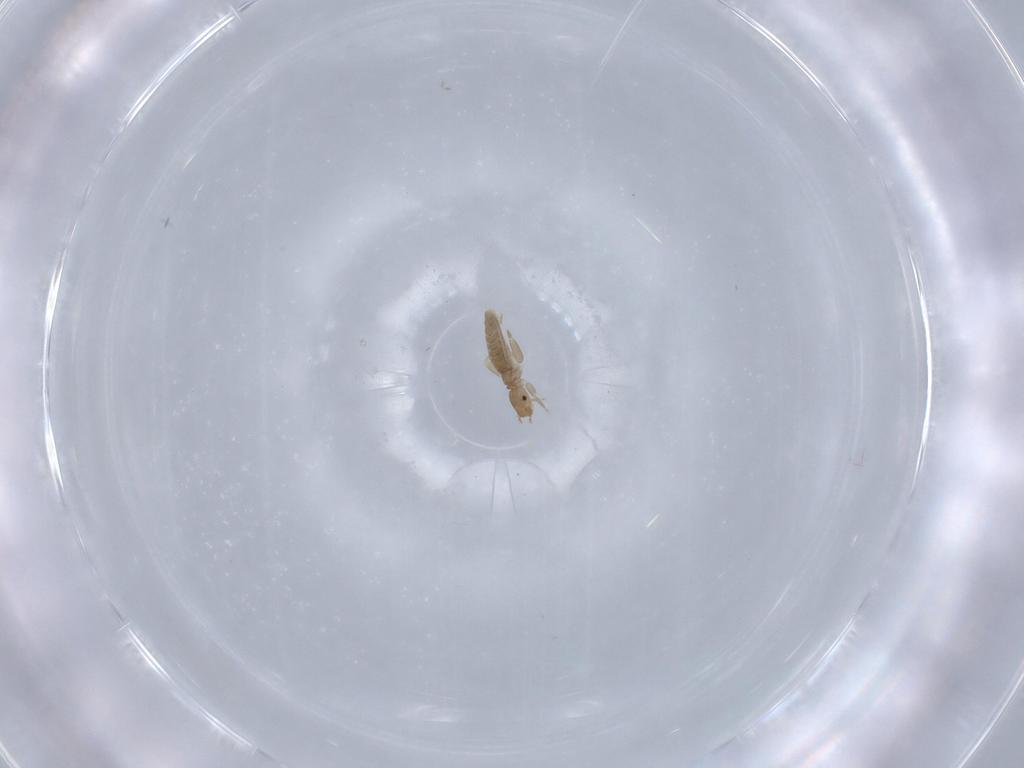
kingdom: Animalia
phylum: Arthropoda
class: Insecta
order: Psocodea
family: Liposcelididae
